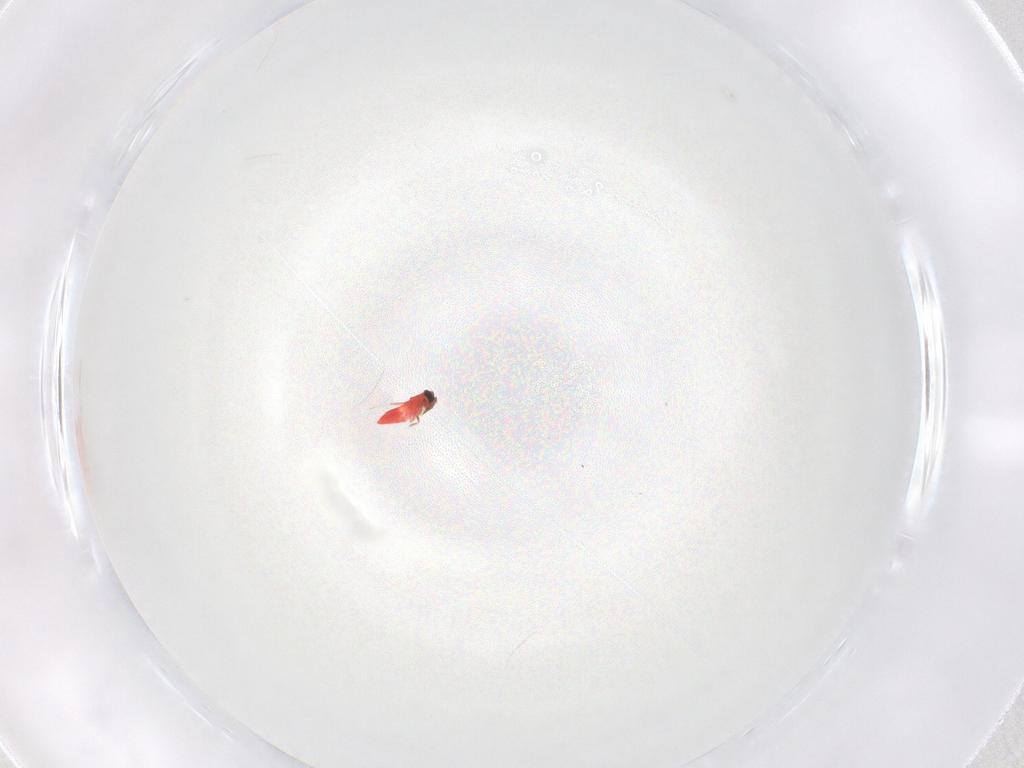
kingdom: Animalia
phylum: Arthropoda
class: Insecta
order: Hymenoptera
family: Trichogrammatidae
